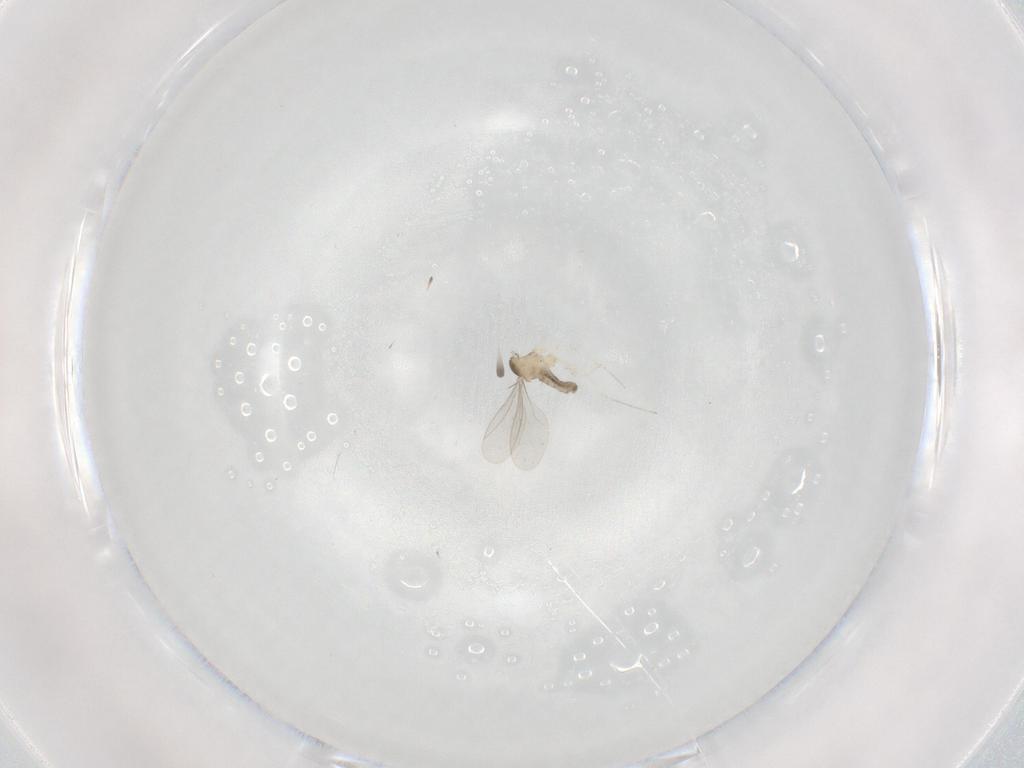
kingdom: Animalia
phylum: Arthropoda
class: Insecta
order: Diptera
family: Cecidomyiidae
